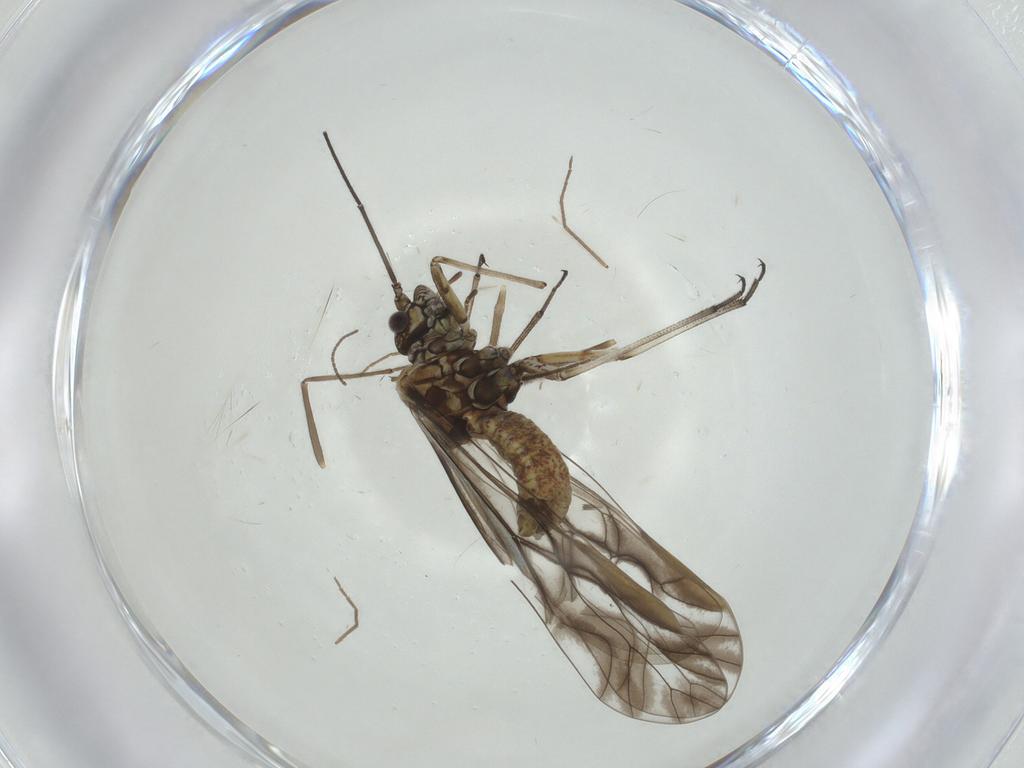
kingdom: Animalia
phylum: Arthropoda
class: Insecta
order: Psocodea
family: Psocidae
